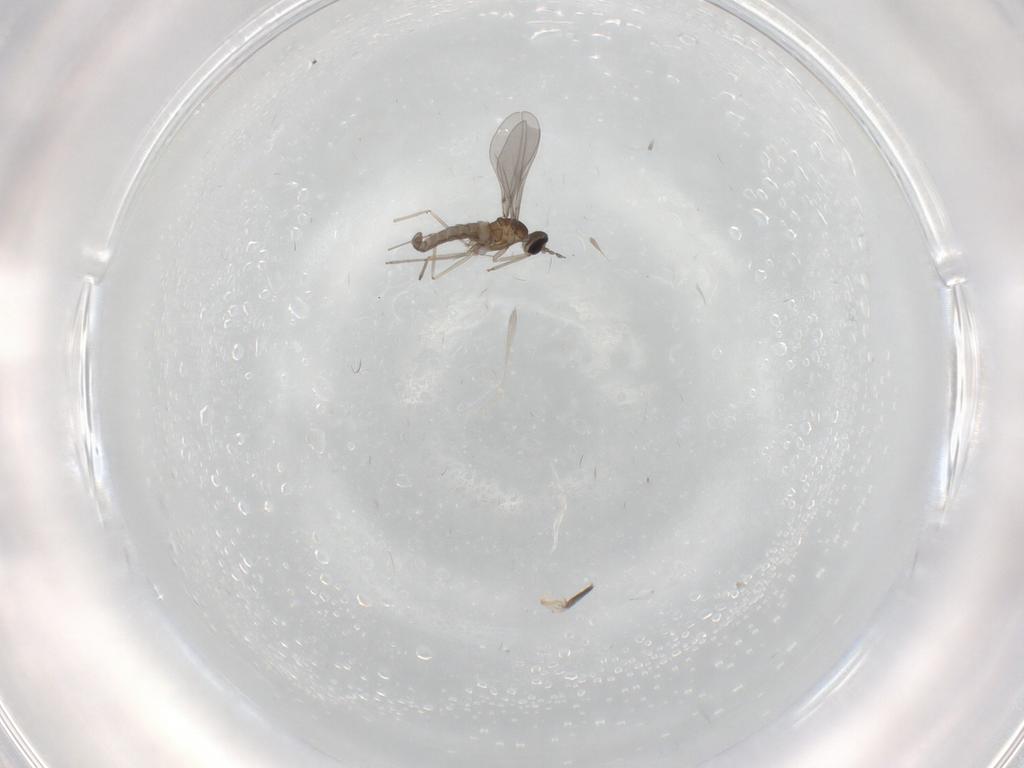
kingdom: Animalia
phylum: Arthropoda
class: Insecta
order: Diptera
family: Cecidomyiidae
